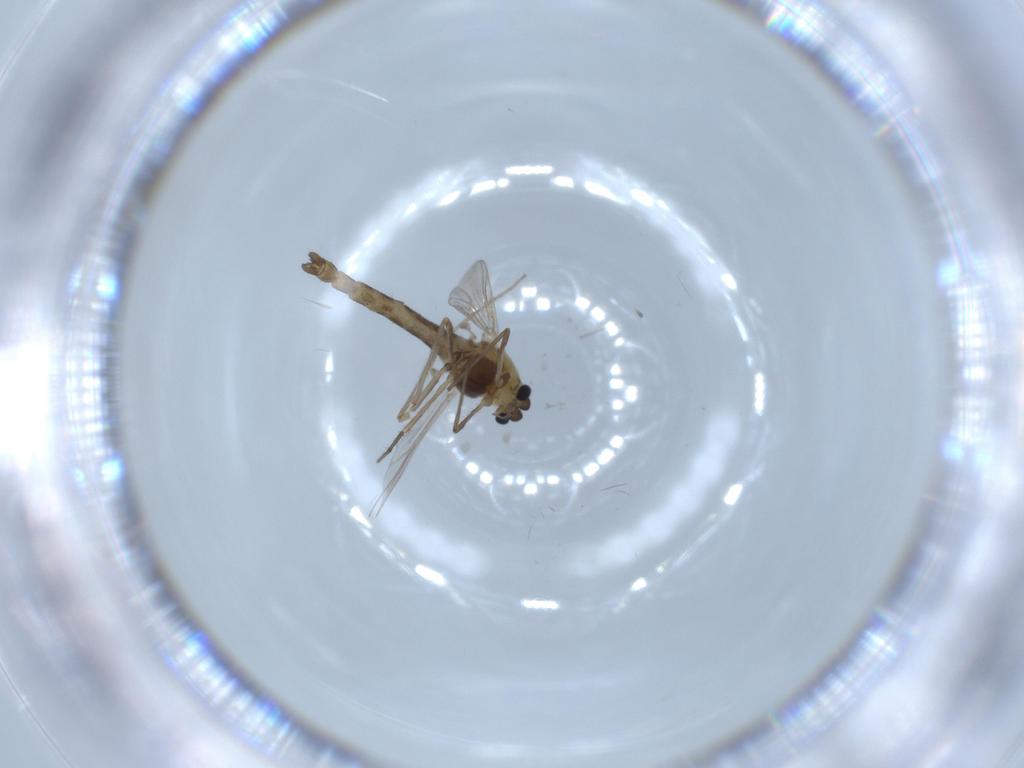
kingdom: Animalia
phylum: Arthropoda
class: Insecta
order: Diptera
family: Chironomidae
